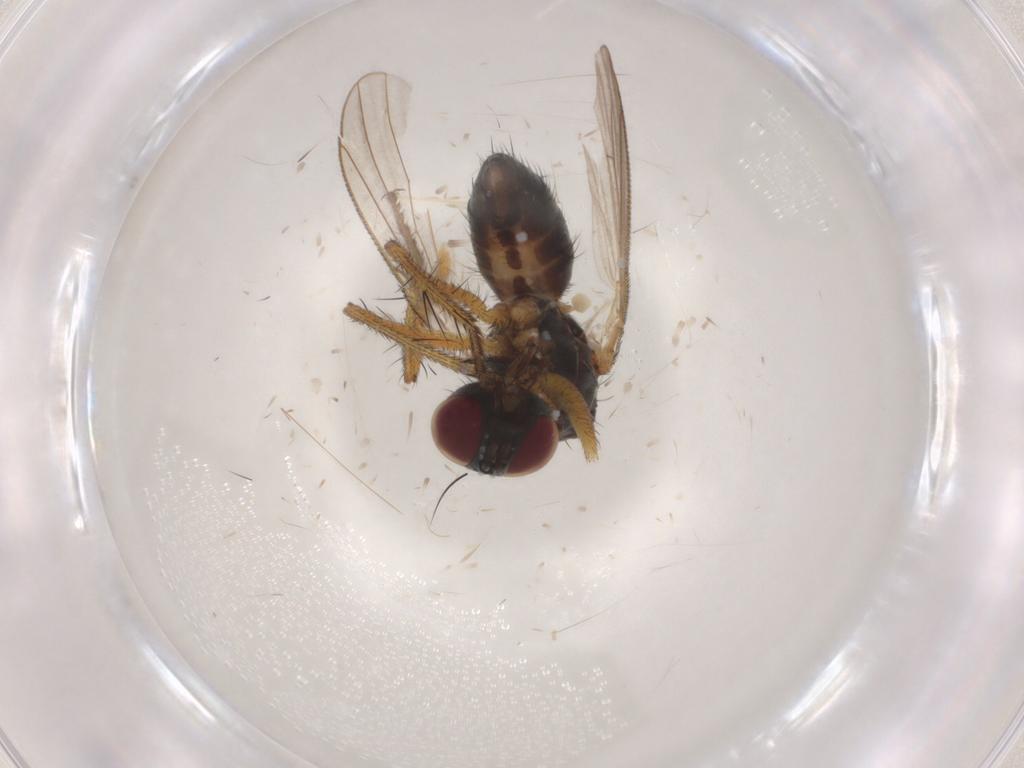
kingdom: Animalia
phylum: Arthropoda
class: Insecta
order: Diptera
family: Muscidae
